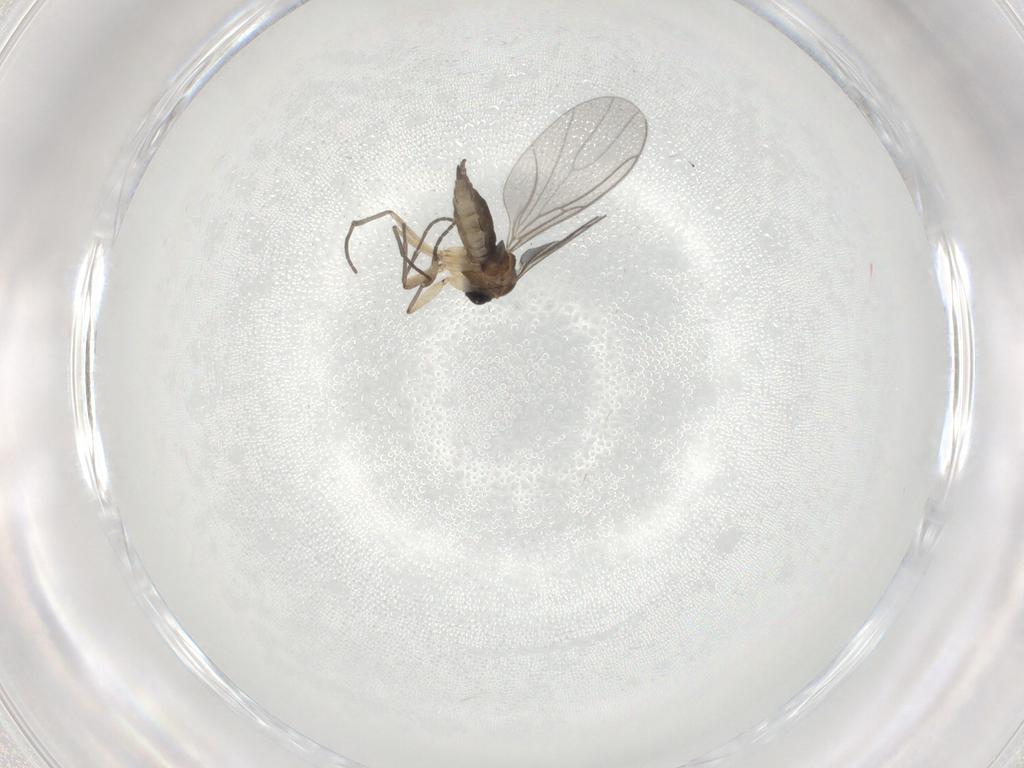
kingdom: Animalia
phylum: Arthropoda
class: Insecta
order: Diptera
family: Sciaridae
